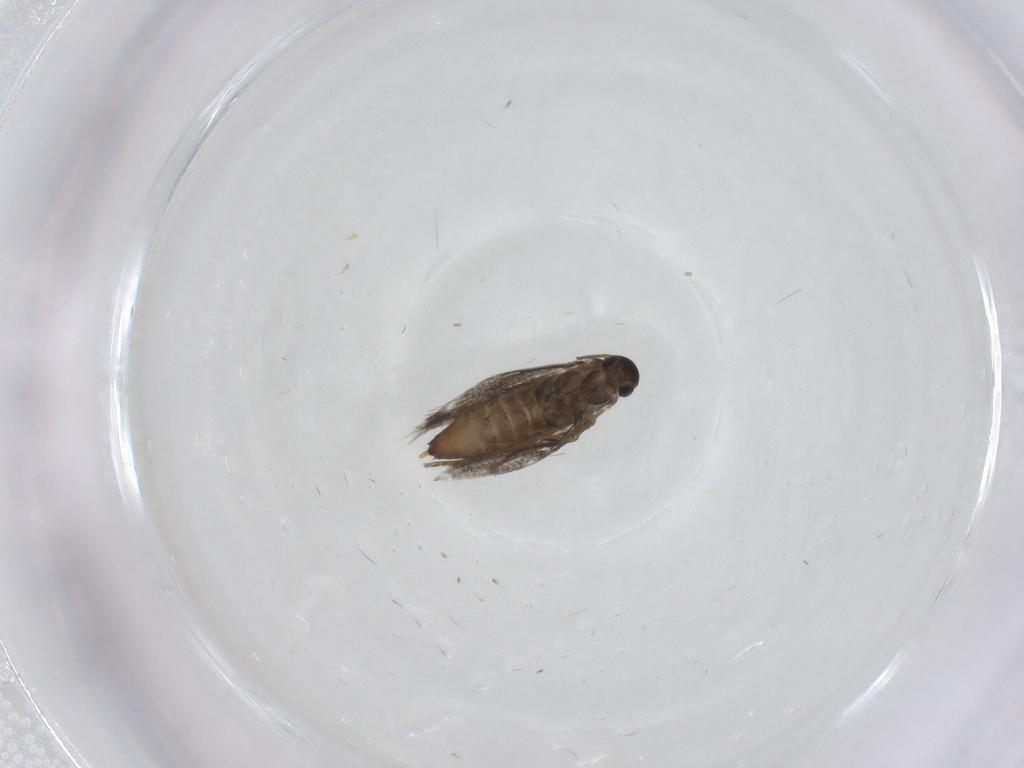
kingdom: Animalia
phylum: Arthropoda
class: Insecta
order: Lepidoptera
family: Heliozelidae
